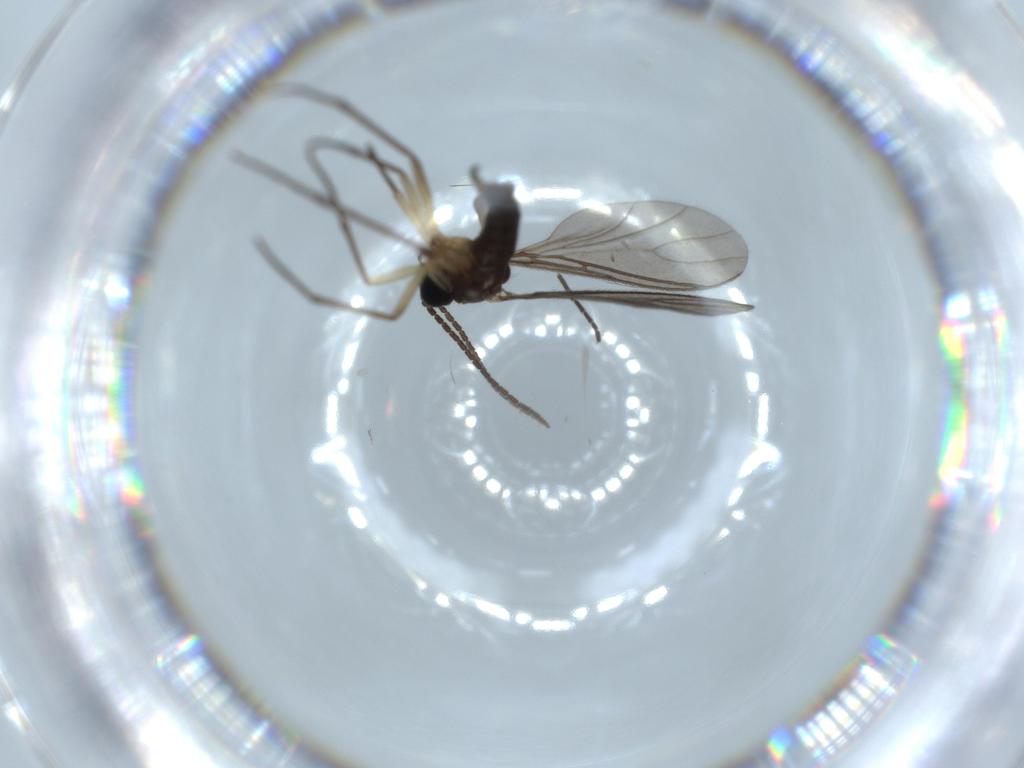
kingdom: Animalia
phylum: Arthropoda
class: Insecta
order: Diptera
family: Sciaridae
